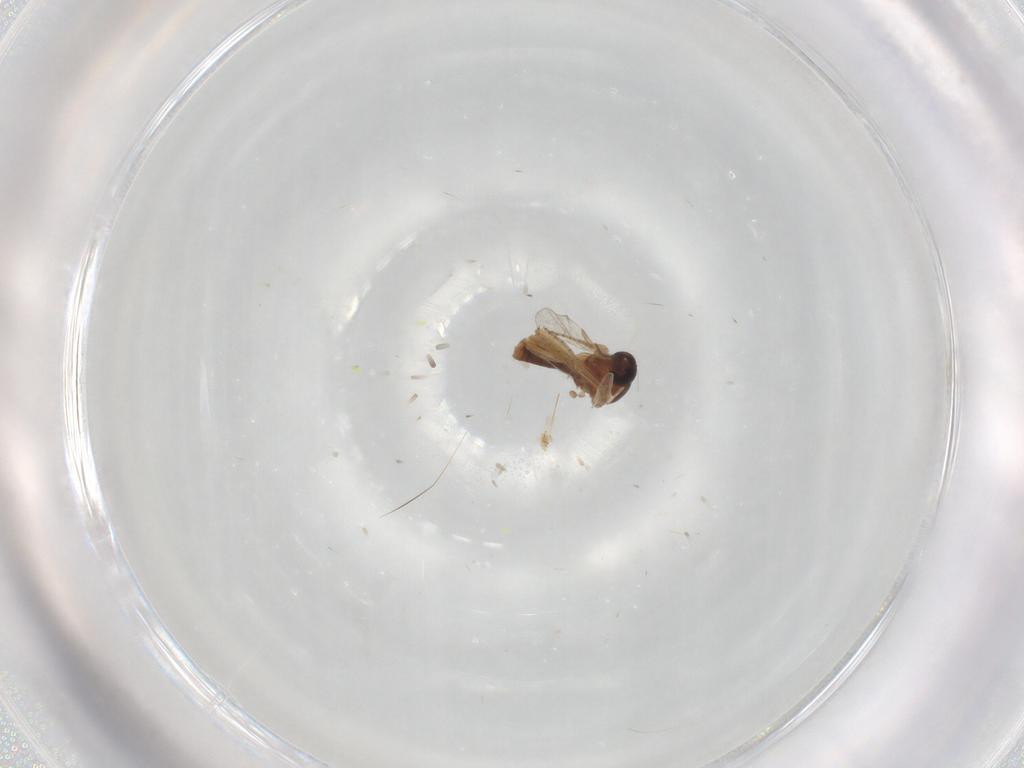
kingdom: Animalia
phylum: Arthropoda
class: Insecta
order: Diptera
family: Ceratopogonidae
